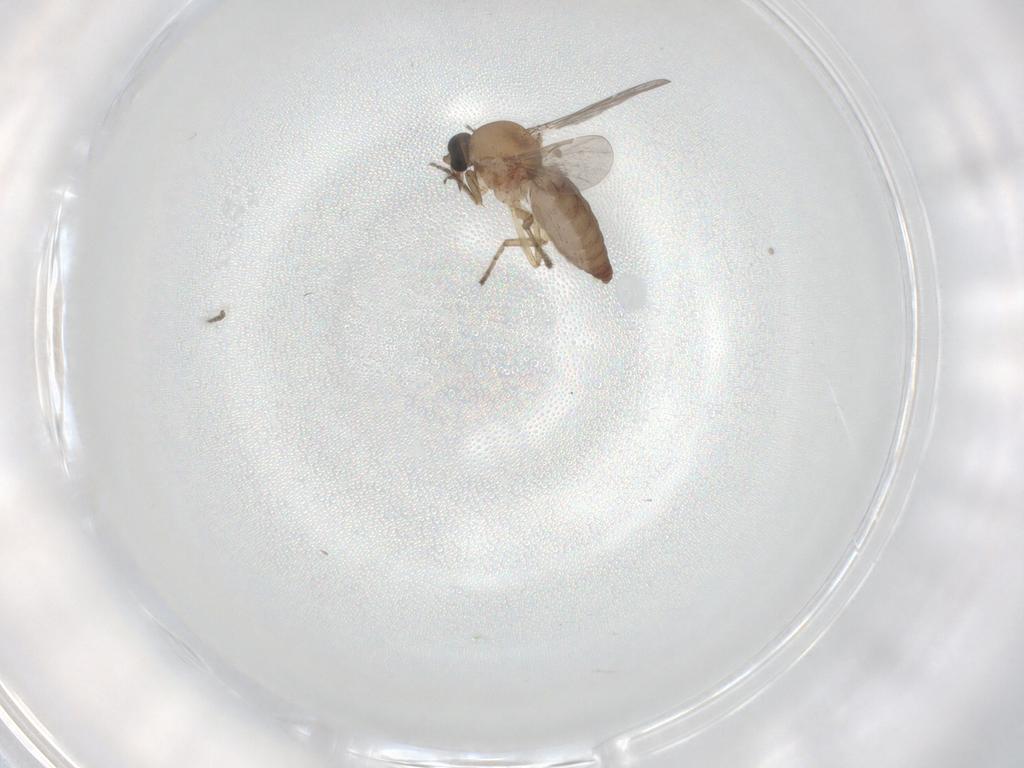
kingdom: Animalia
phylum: Arthropoda
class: Insecta
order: Diptera
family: Ceratopogonidae
